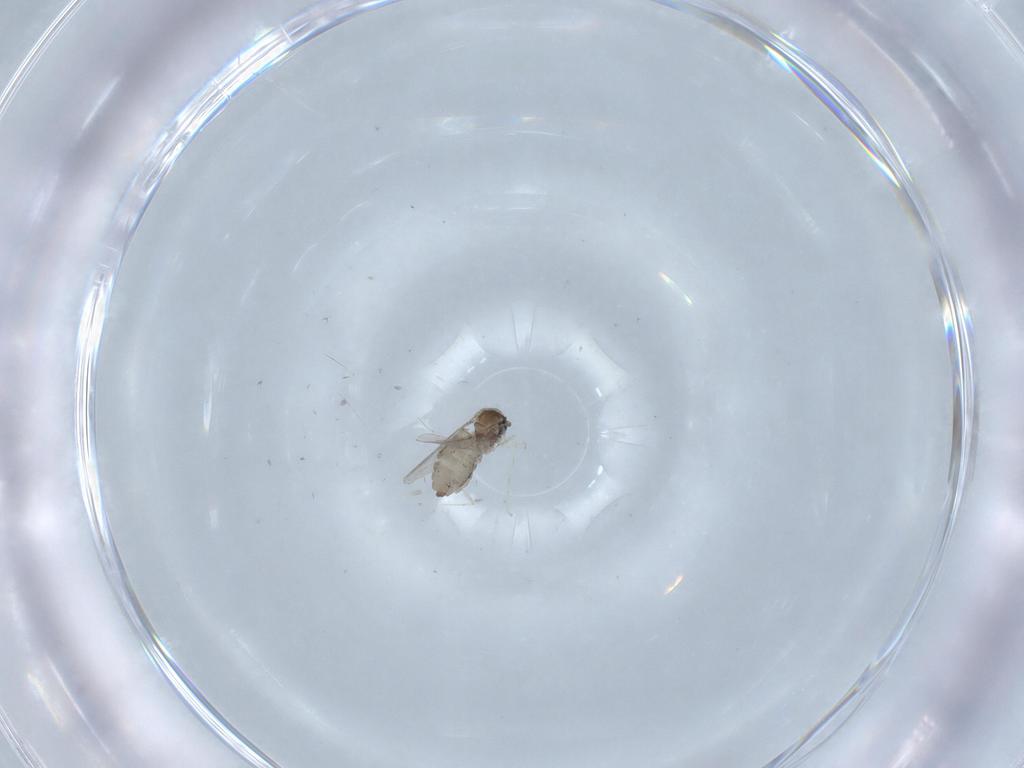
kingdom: Animalia
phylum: Arthropoda
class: Insecta
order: Diptera
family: Cecidomyiidae
